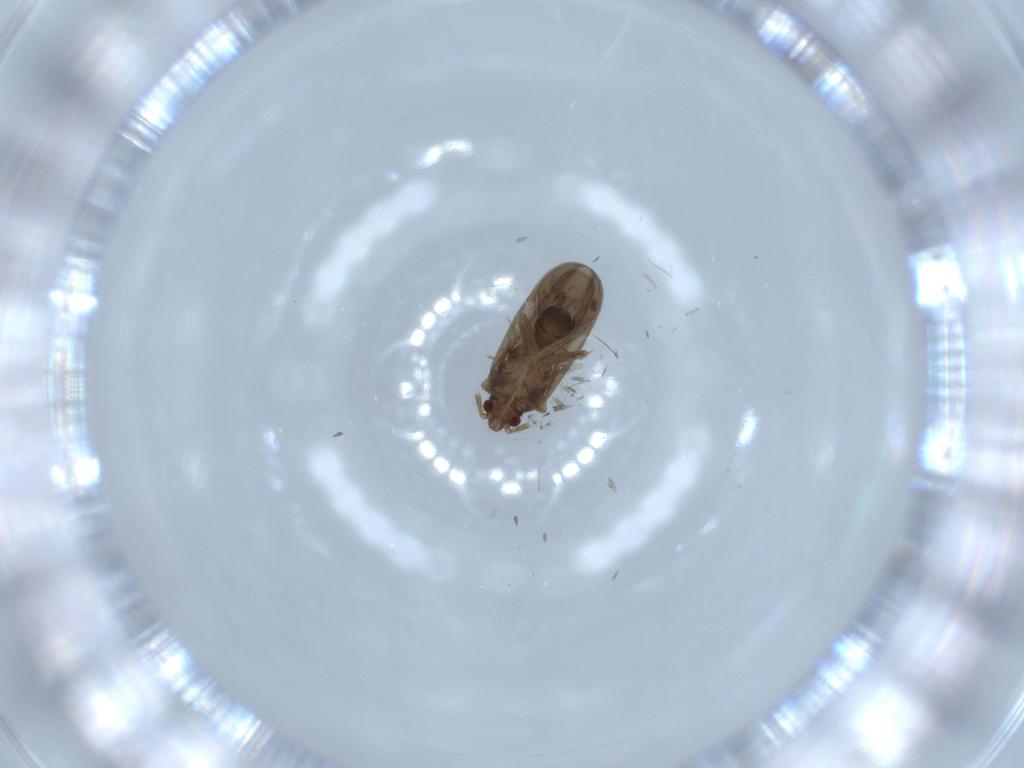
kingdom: Animalia
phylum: Arthropoda
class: Insecta
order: Hemiptera
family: Ceratocombidae
